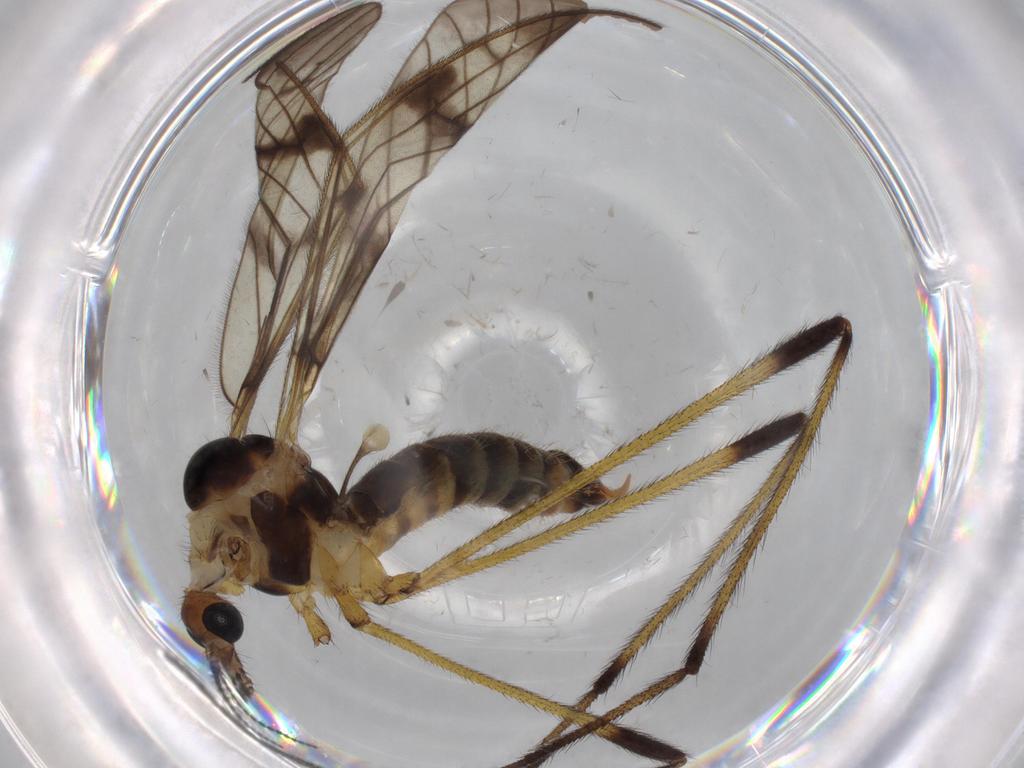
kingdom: Animalia
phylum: Arthropoda
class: Insecta
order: Diptera
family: Limoniidae
